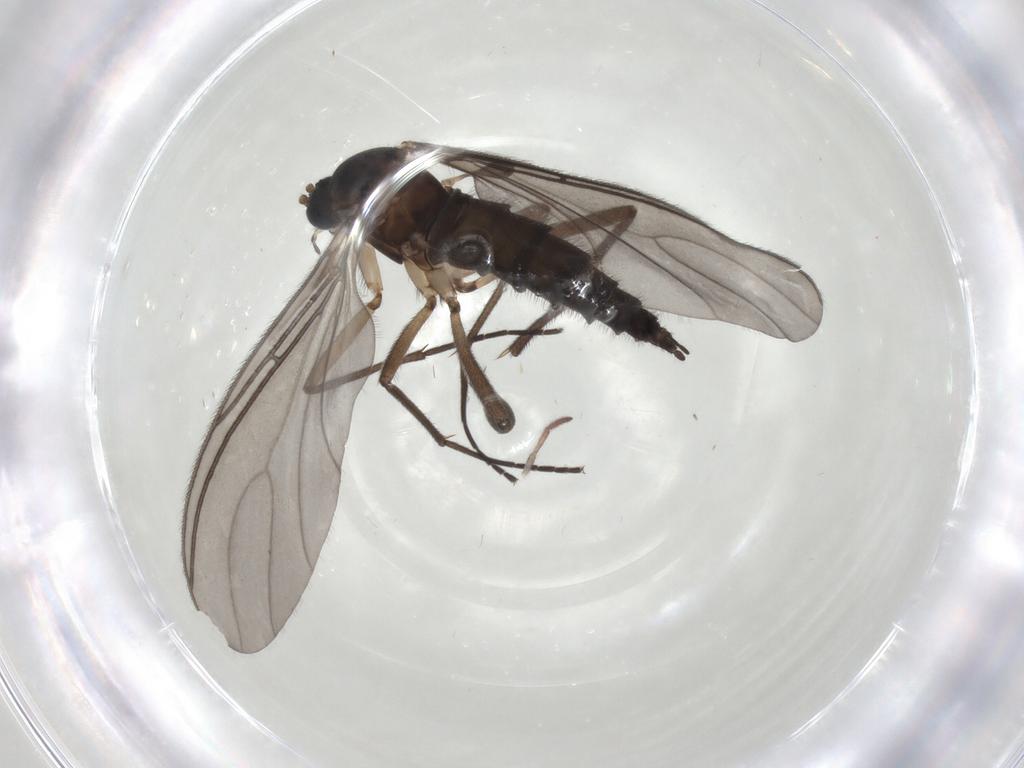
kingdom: Animalia
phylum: Arthropoda
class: Insecta
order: Diptera
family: Sciaridae
